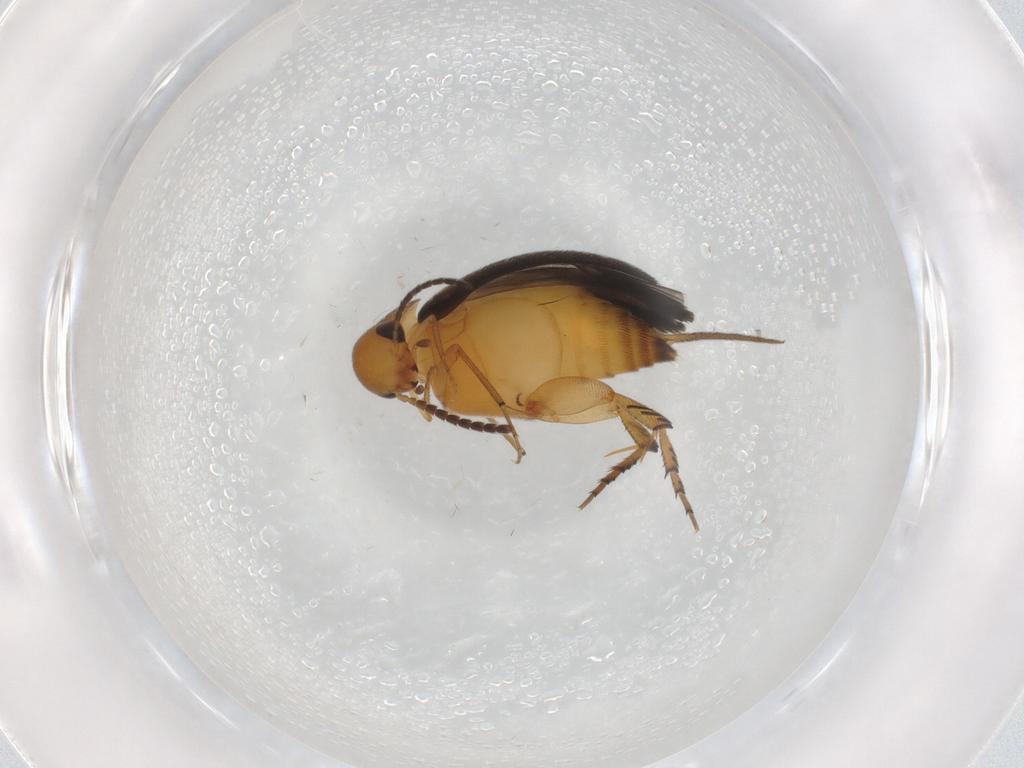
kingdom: Animalia
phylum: Arthropoda
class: Insecta
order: Coleoptera
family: Mordellidae
